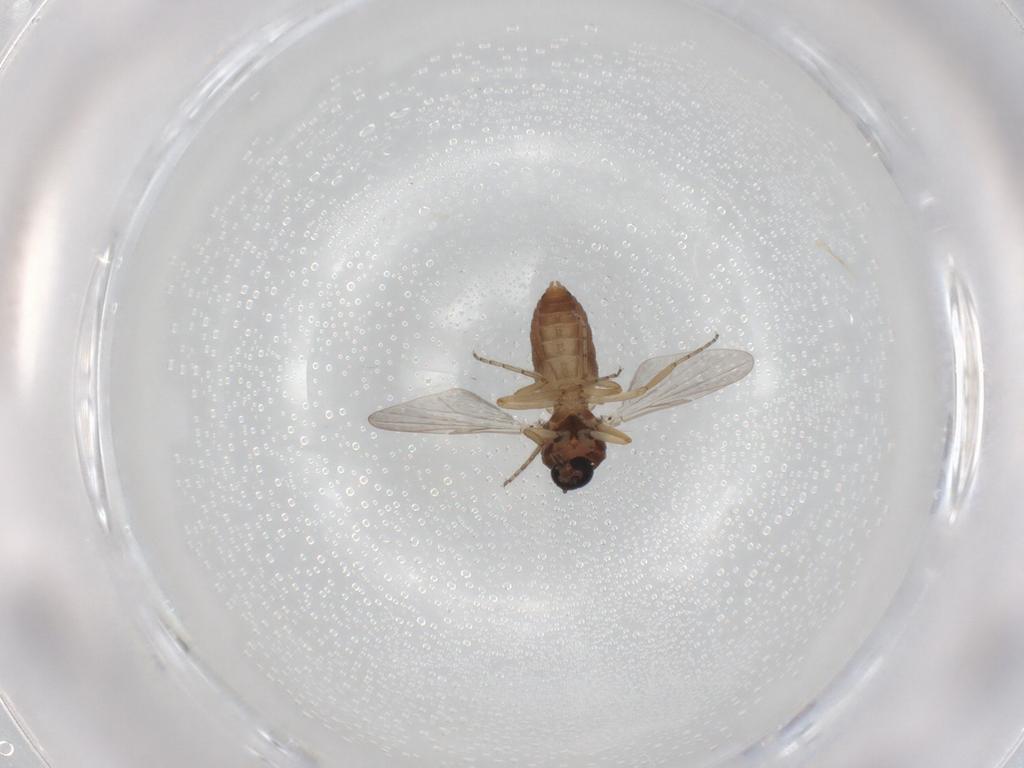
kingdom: Animalia
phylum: Arthropoda
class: Insecta
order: Diptera
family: Ceratopogonidae
